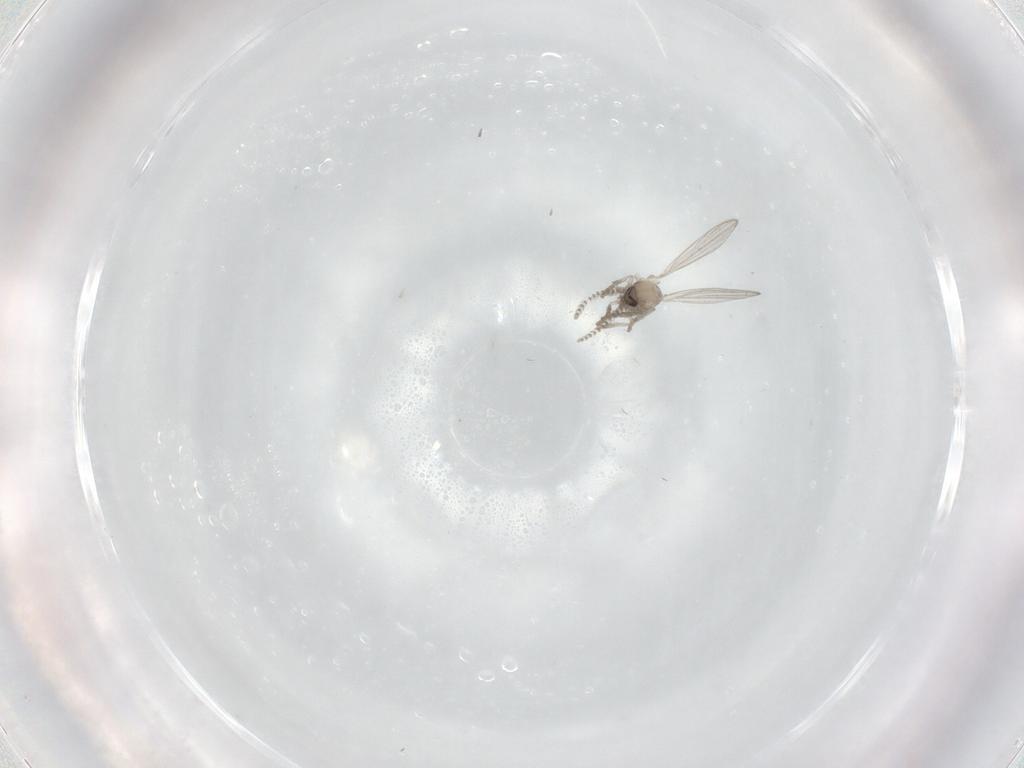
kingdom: Animalia
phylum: Arthropoda
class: Insecta
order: Diptera
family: Psychodidae
